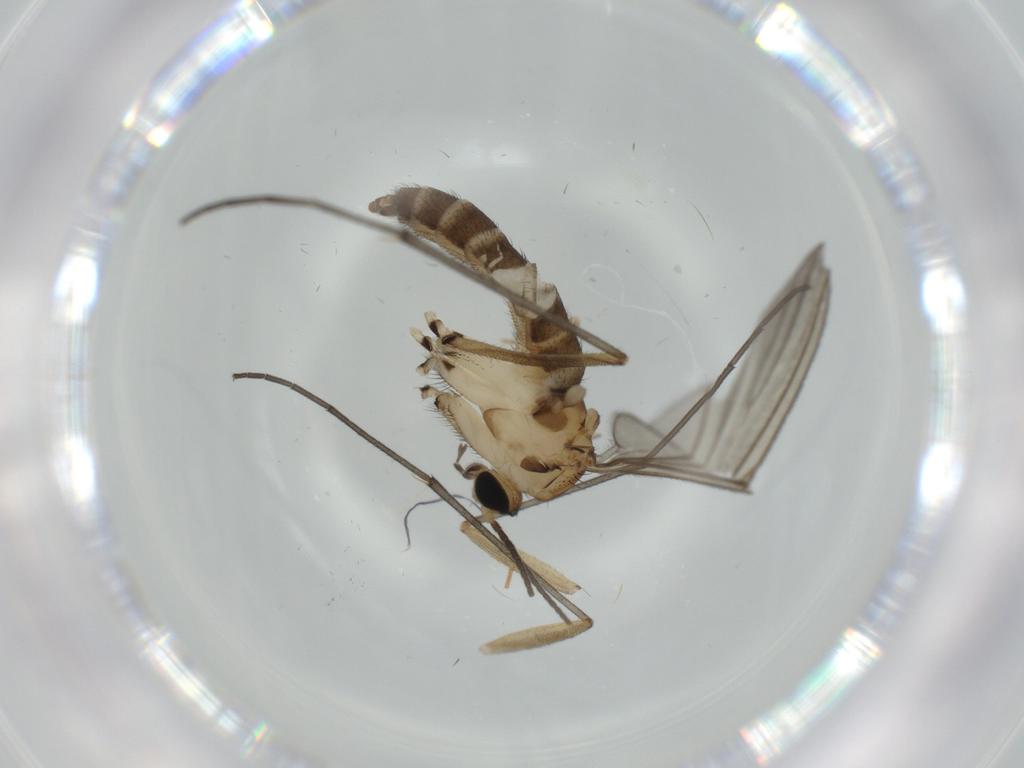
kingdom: Animalia
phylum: Arthropoda
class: Insecta
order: Diptera
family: Sciaridae
